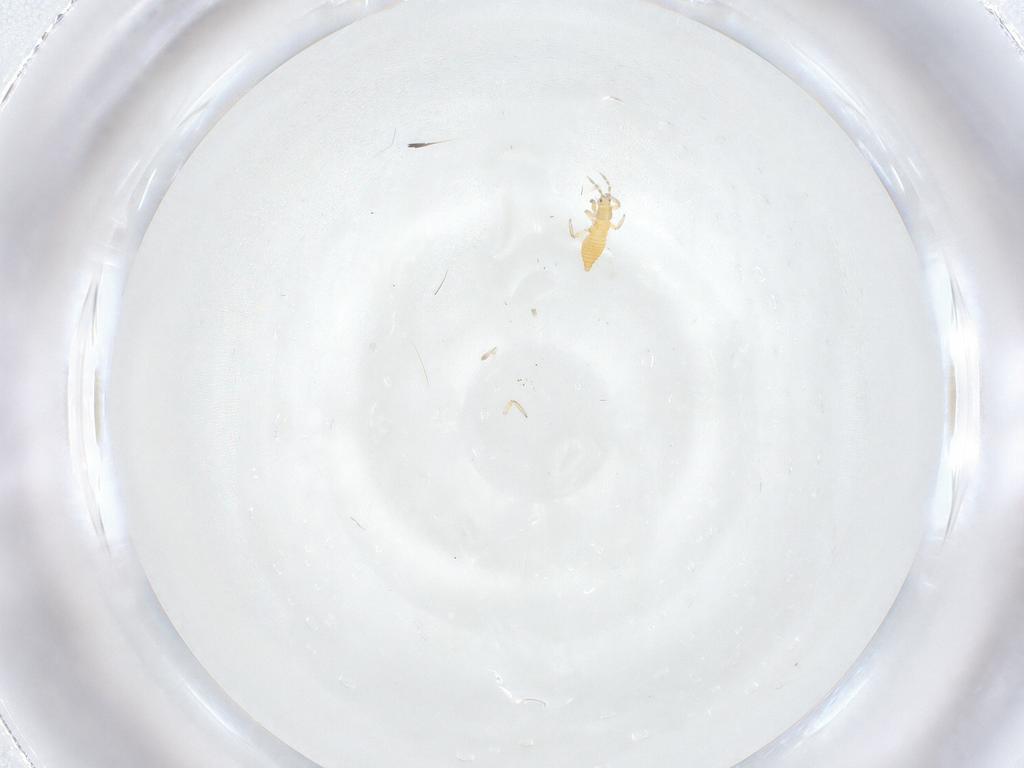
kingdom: Animalia
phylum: Arthropoda
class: Insecta
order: Thysanoptera
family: Aeolothripidae
